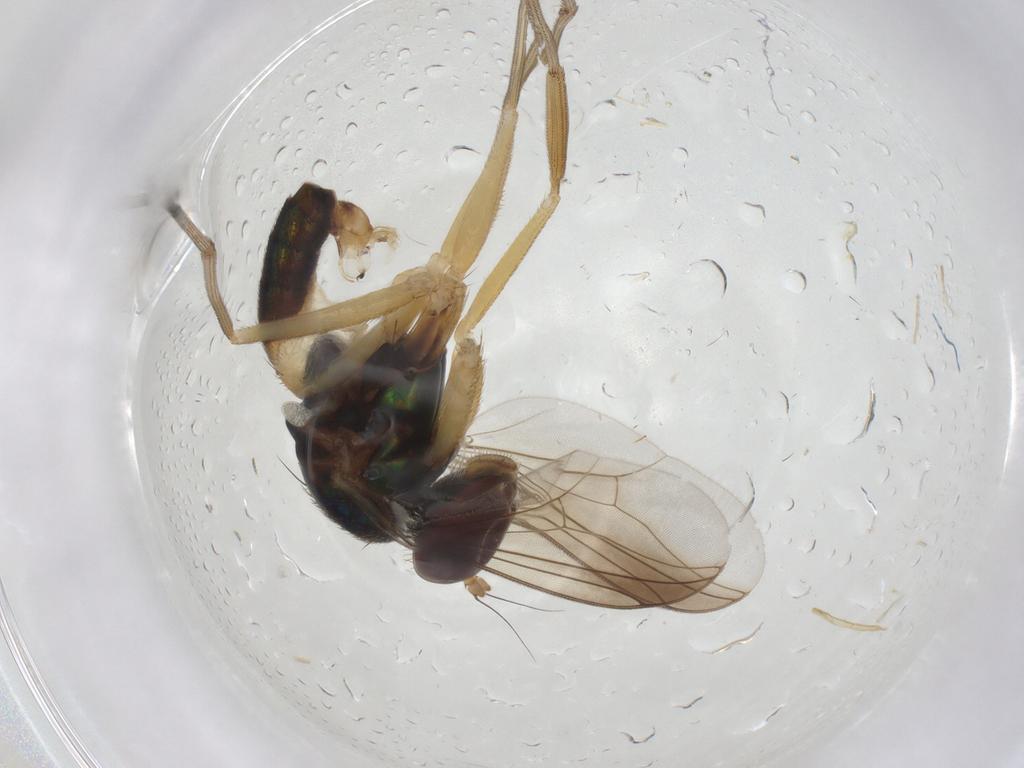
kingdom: Animalia
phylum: Arthropoda
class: Insecta
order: Diptera
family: Dolichopodidae
